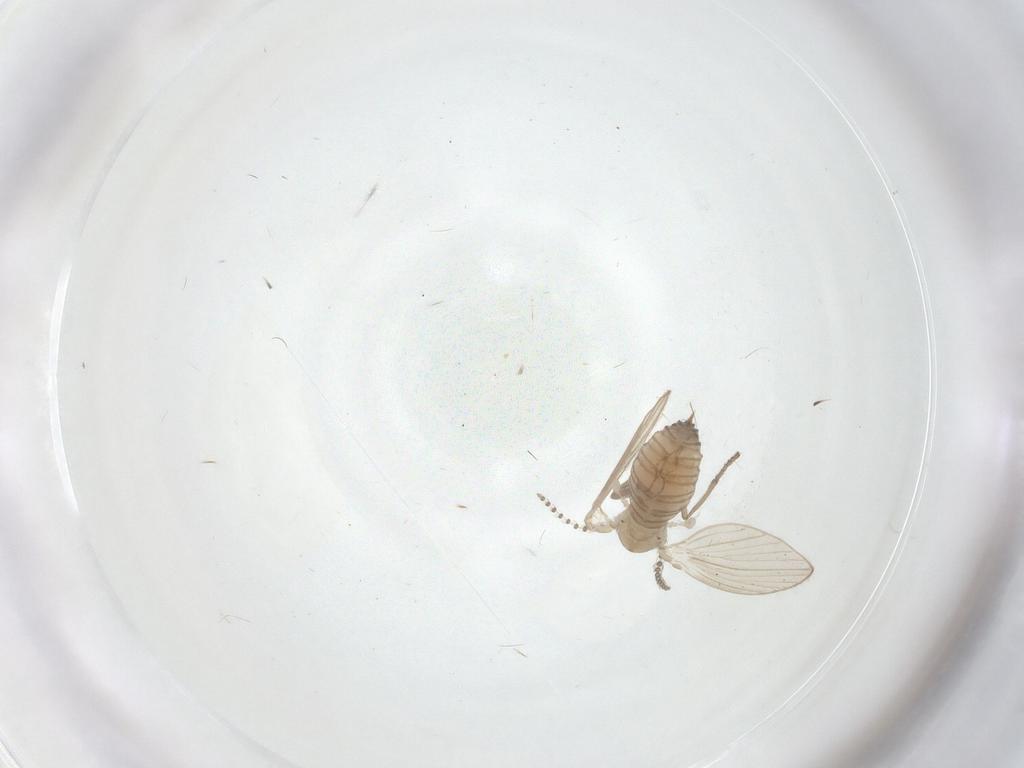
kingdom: Animalia
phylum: Arthropoda
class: Insecta
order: Diptera
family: Psychodidae
